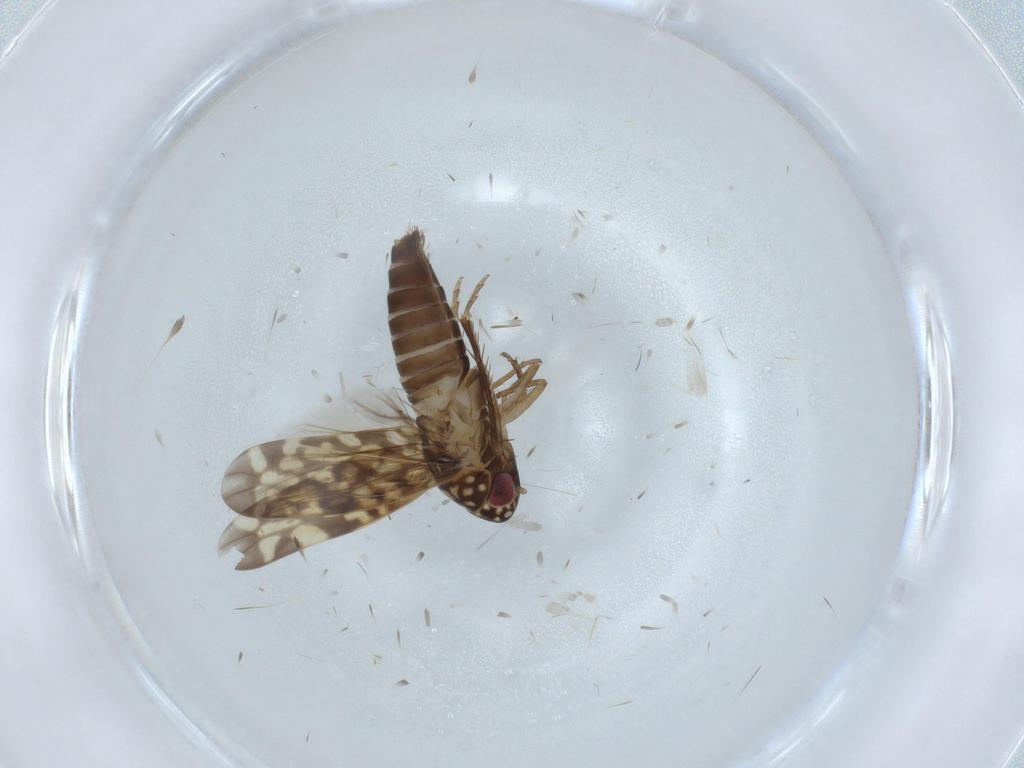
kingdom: Animalia
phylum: Arthropoda
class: Insecta
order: Hemiptera
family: Cicadellidae
